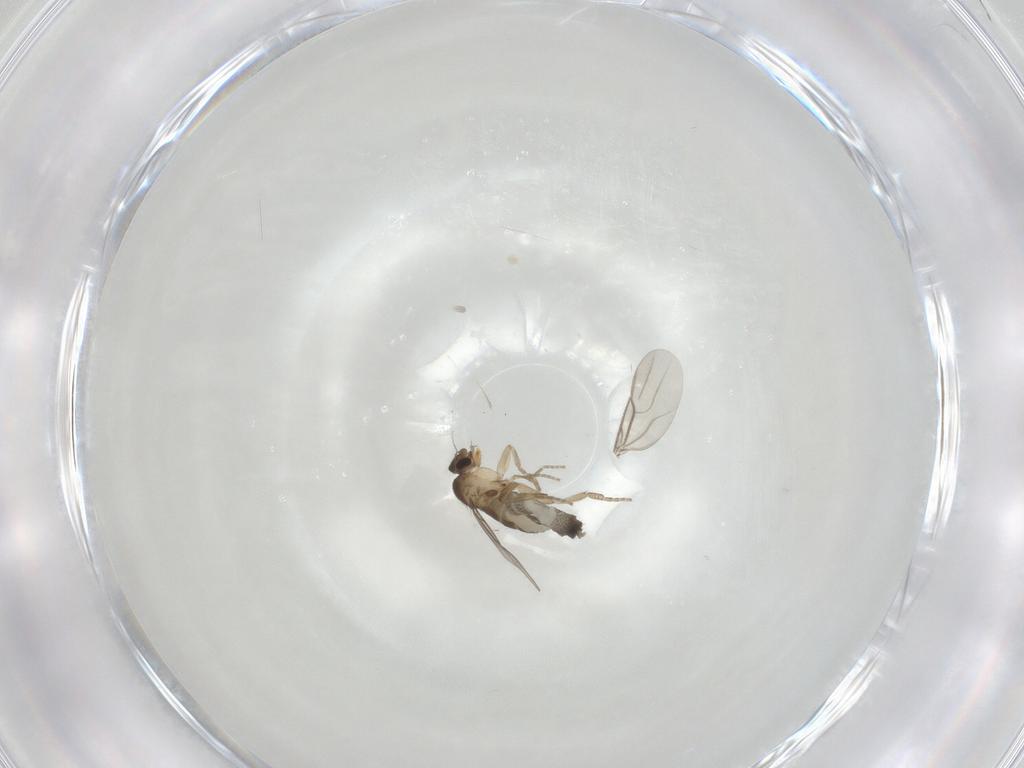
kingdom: Animalia
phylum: Arthropoda
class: Insecta
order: Diptera
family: Phoridae
